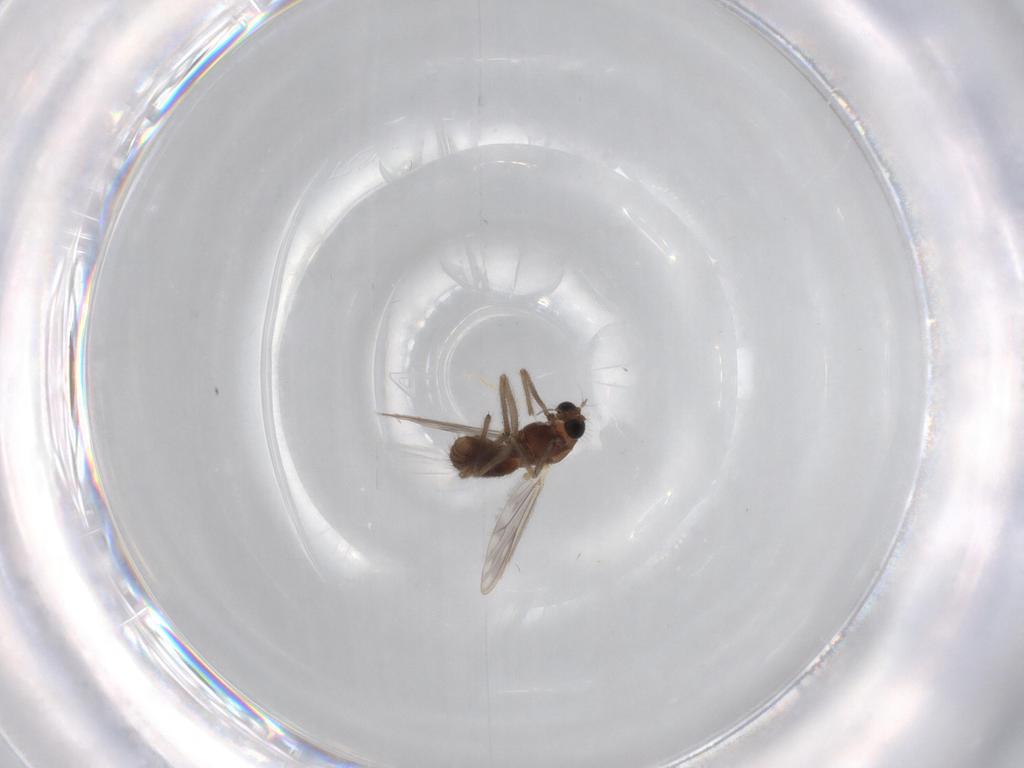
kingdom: Animalia
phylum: Arthropoda
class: Insecta
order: Diptera
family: Chironomidae
